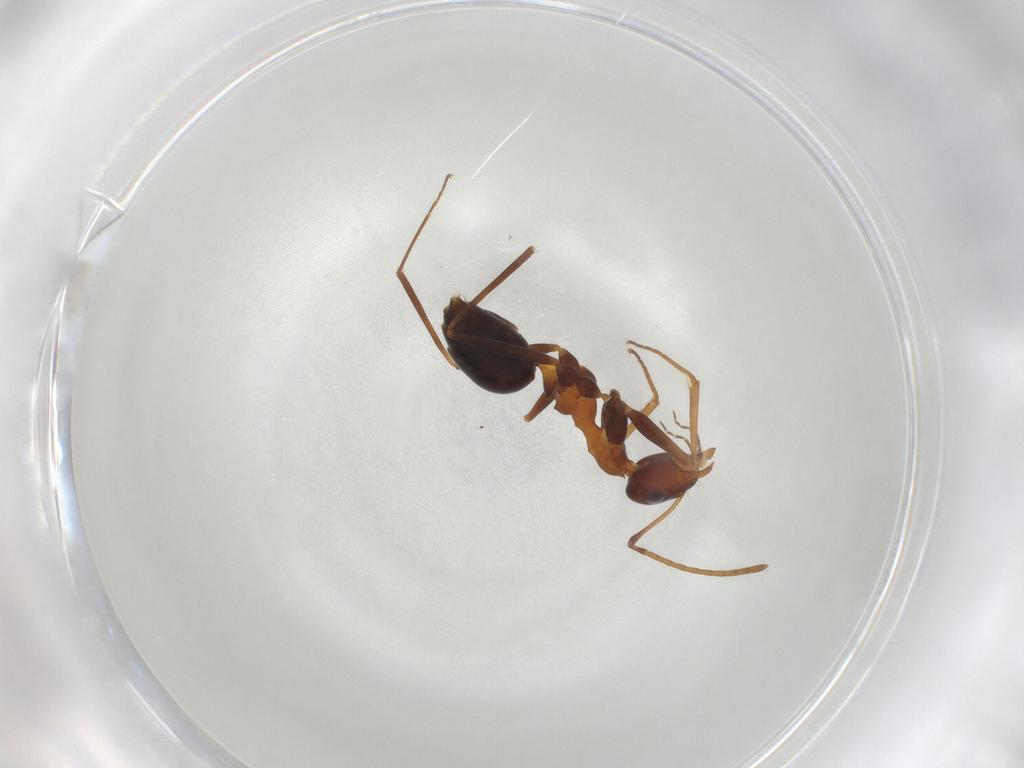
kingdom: Animalia
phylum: Arthropoda
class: Insecta
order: Hymenoptera
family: Formicidae
